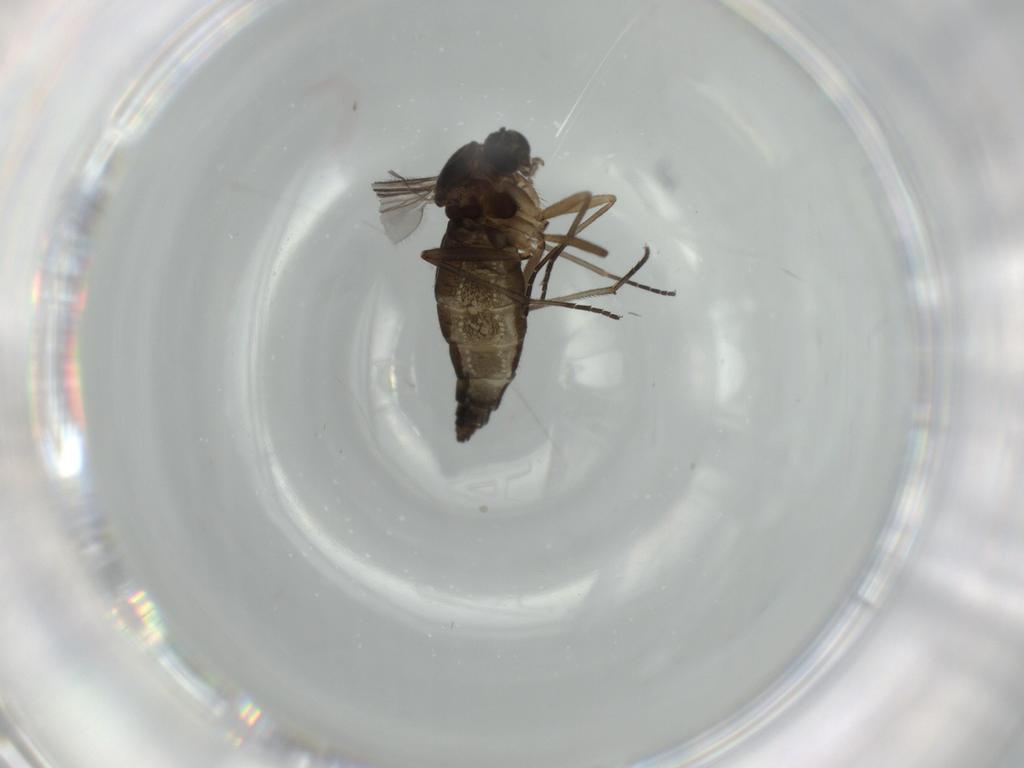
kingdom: Animalia
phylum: Arthropoda
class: Insecta
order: Diptera
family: Sciaridae
